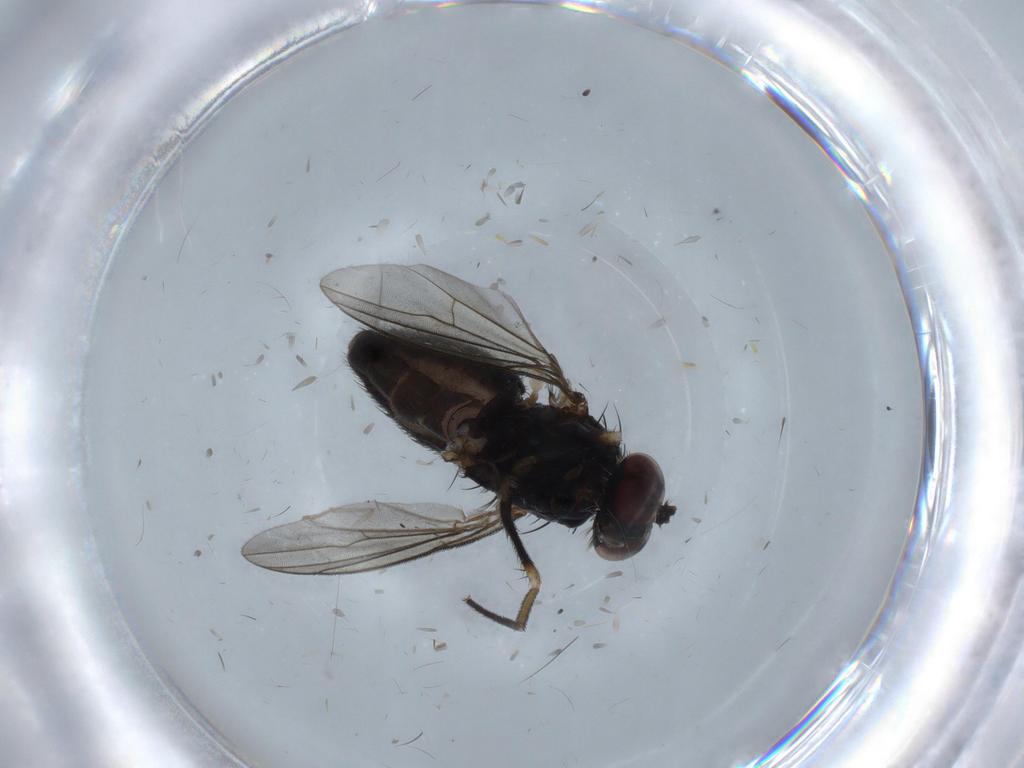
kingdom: Animalia
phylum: Arthropoda
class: Insecta
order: Diptera
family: Dolichopodidae
